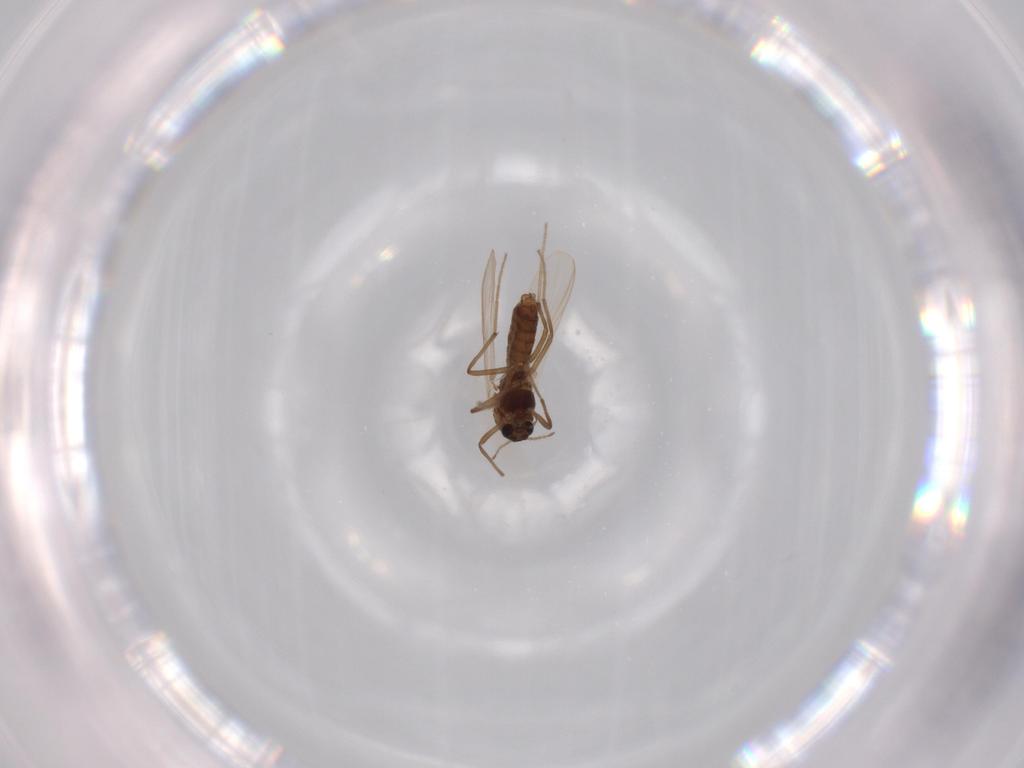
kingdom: Animalia
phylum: Arthropoda
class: Insecta
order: Diptera
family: Chironomidae
